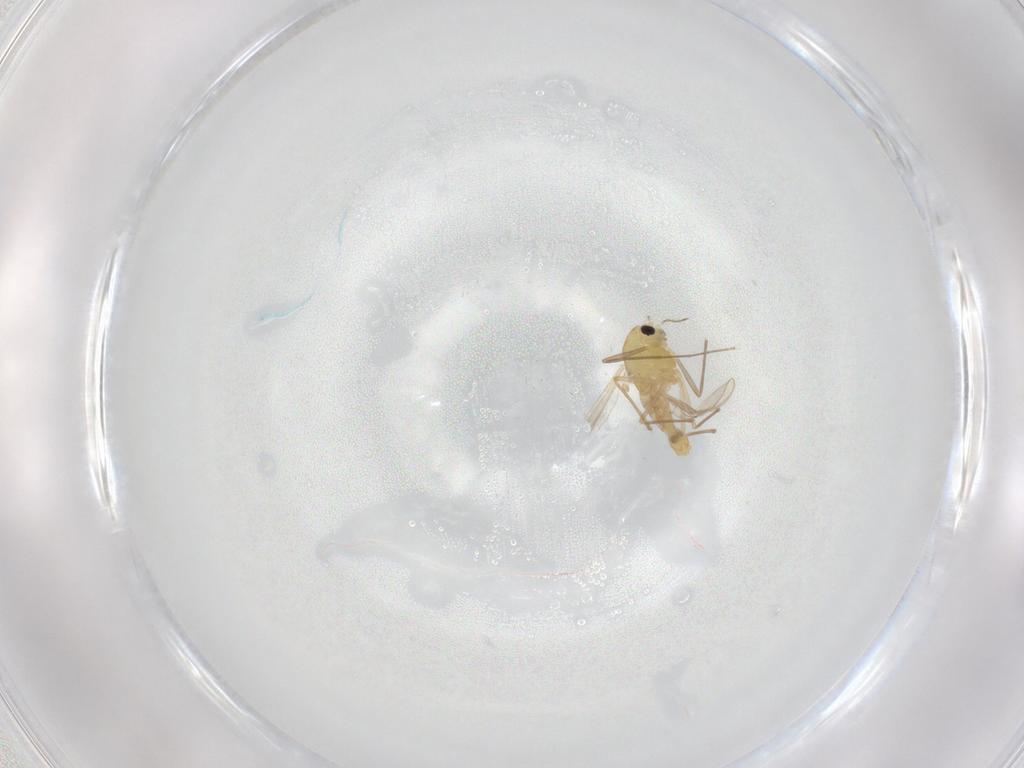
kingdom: Animalia
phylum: Arthropoda
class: Insecta
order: Diptera
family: Chironomidae
